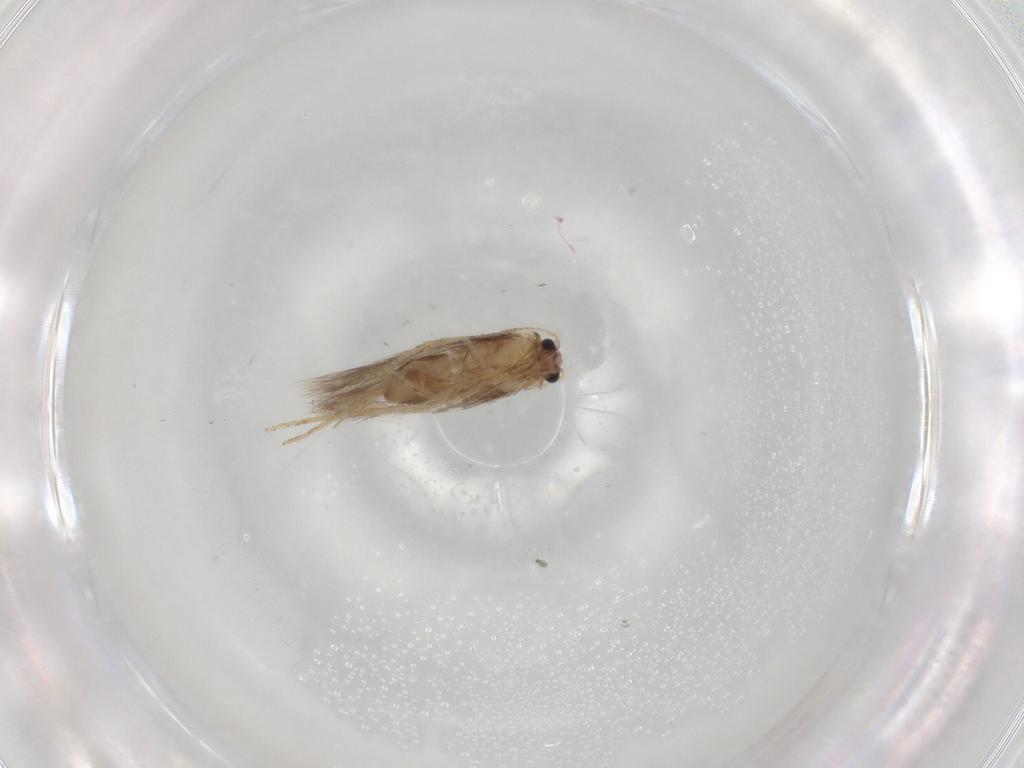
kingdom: Animalia
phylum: Arthropoda
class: Insecta
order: Lepidoptera
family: Nepticulidae
